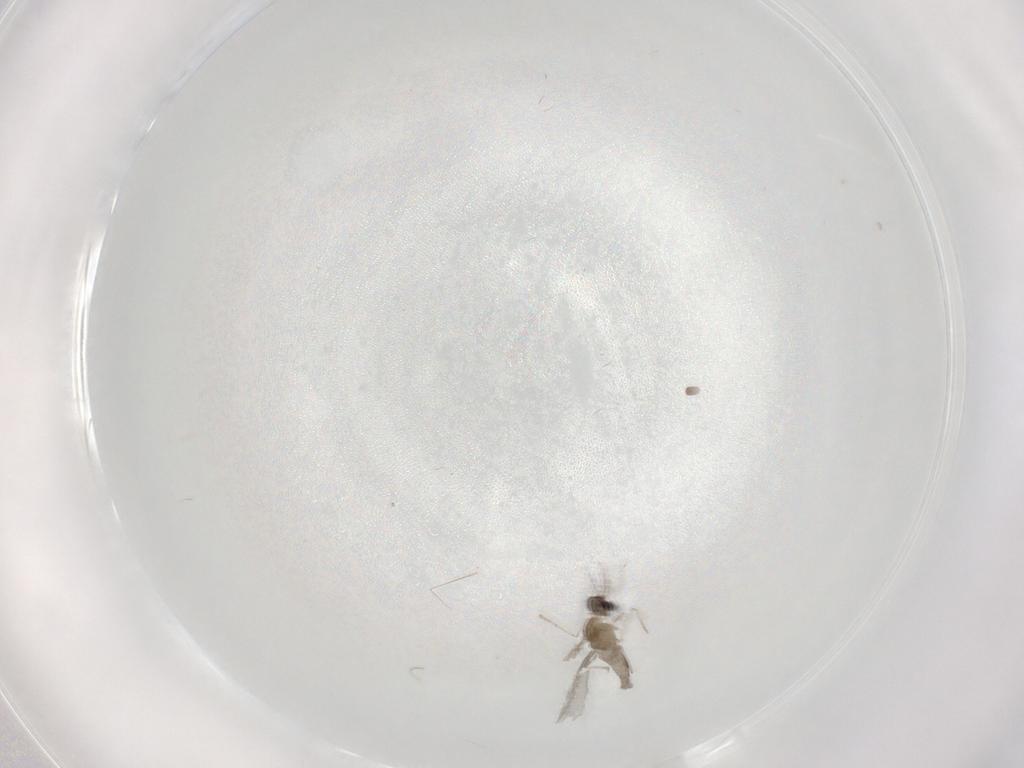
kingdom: Animalia
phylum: Arthropoda
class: Insecta
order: Diptera
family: Cecidomyiidae
